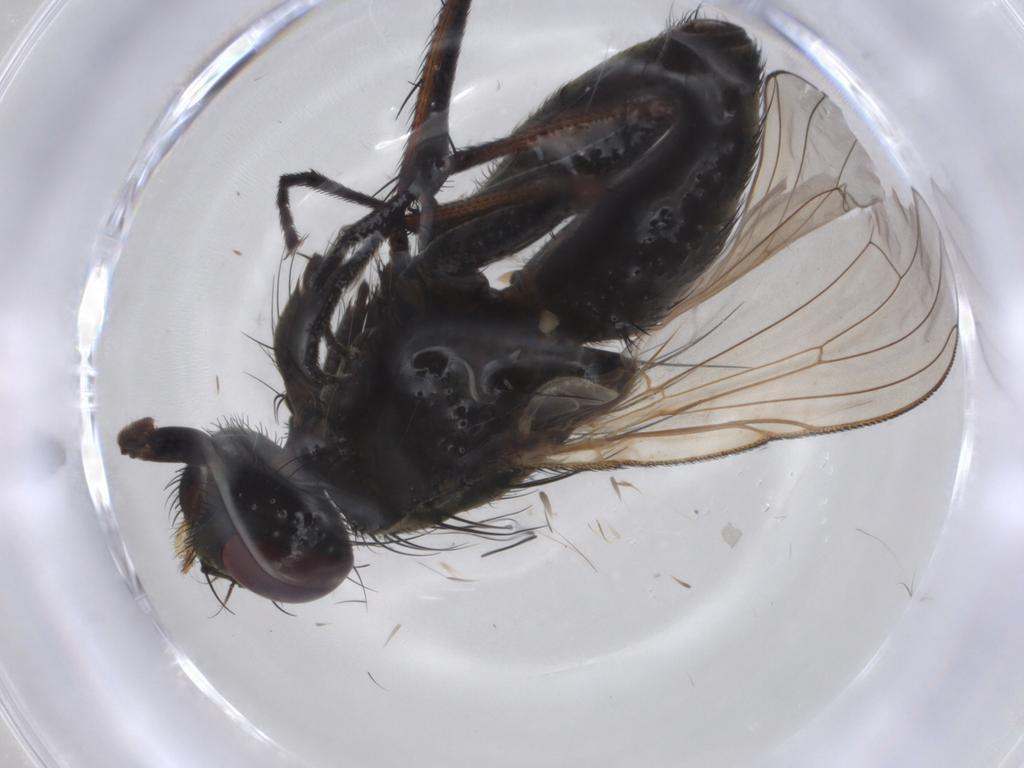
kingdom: Animalia
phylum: Arthropoda
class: Insecta
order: Diptera
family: Muscidae
